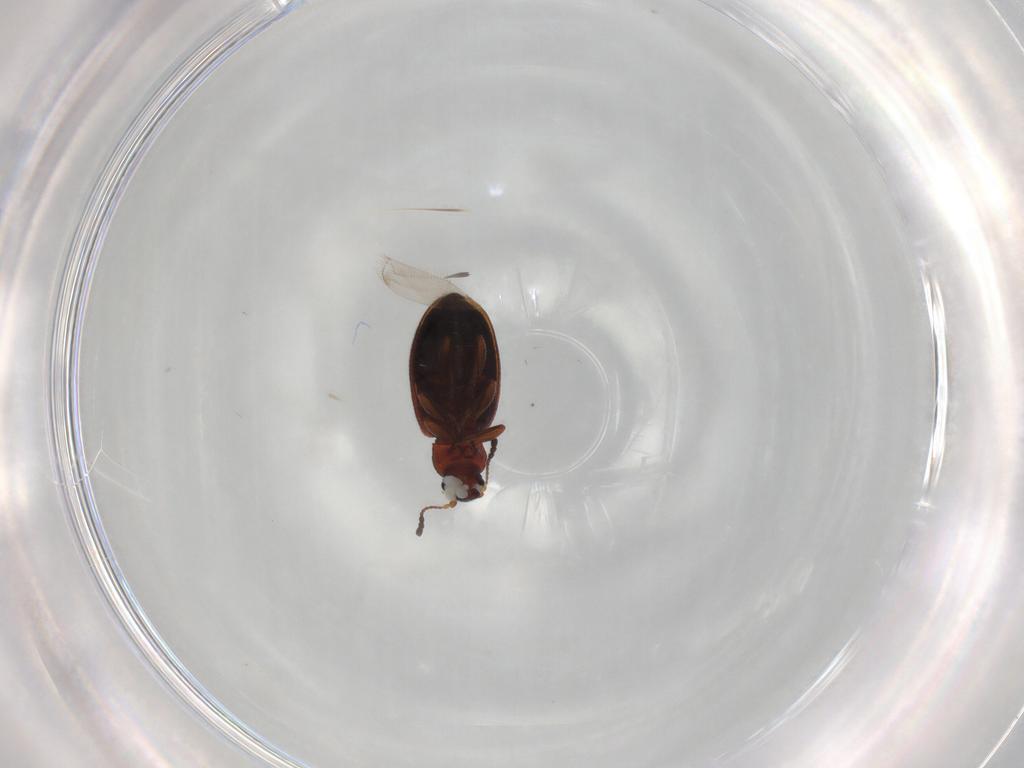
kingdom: Animalia
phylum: Arthropoda
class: Insecta
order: Coleoptera
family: Latridiidae
